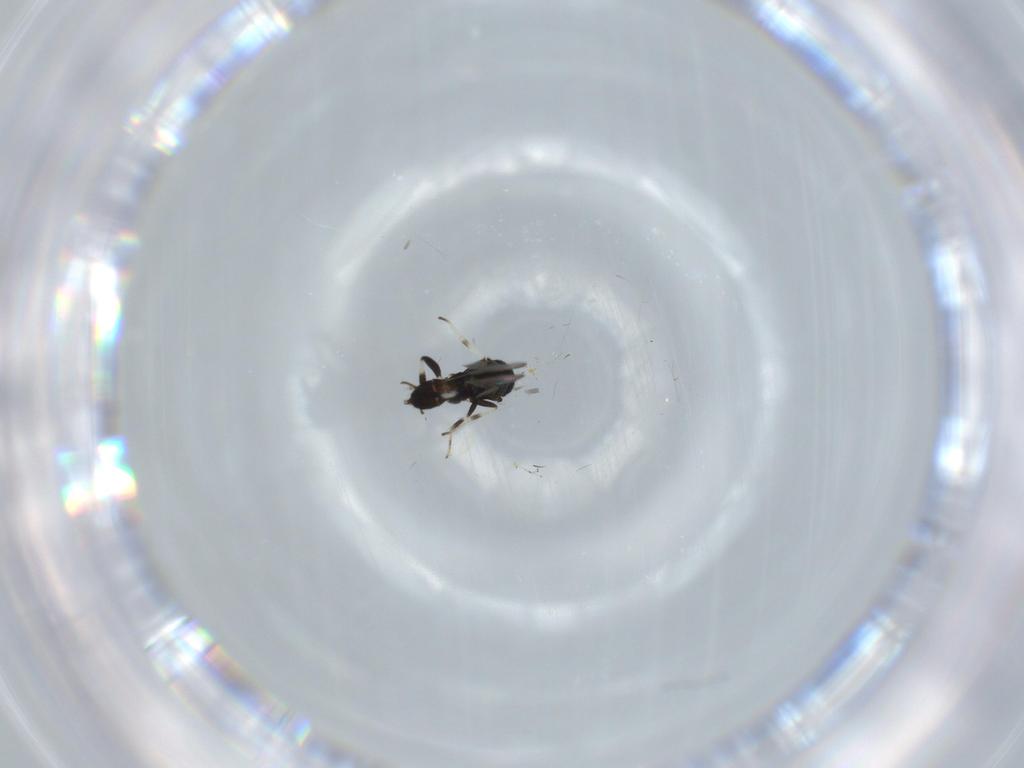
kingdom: Animalia
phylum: Arthropoda
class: Insecta
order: Hymenoptera
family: Eupelmidae
